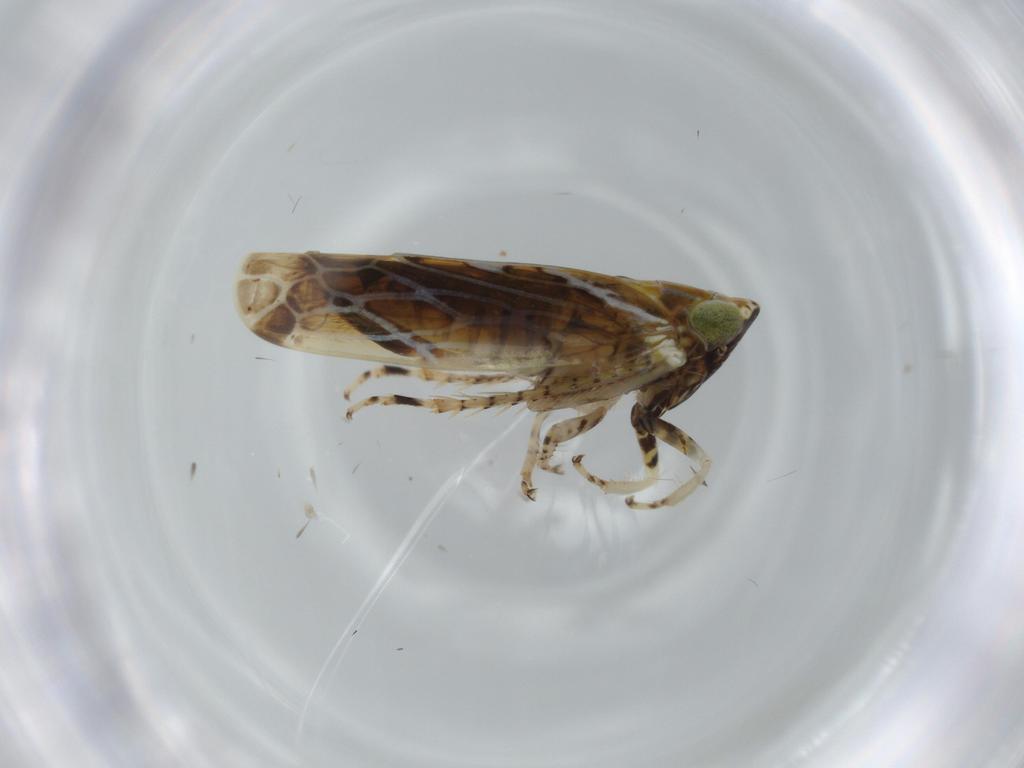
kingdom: Animalia
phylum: Arthropoda
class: Insecta
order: Hemiptera
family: Cicadellidae
